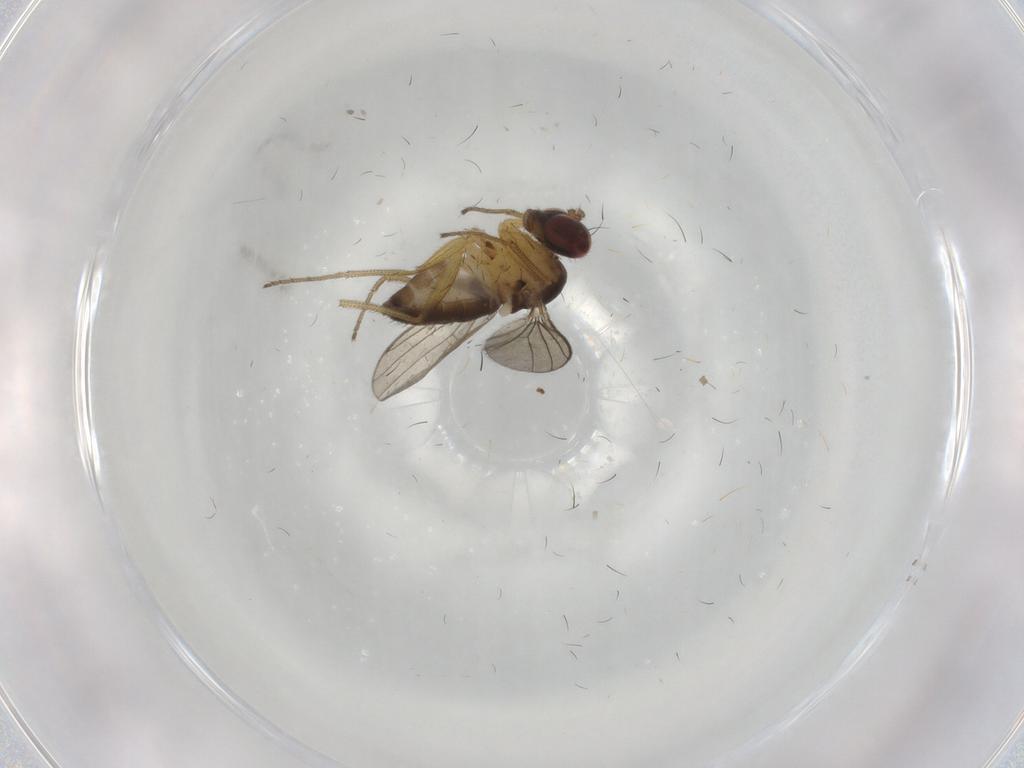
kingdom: Animalia
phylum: Arthropoda
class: Insecta
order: Diptera
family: Dolichopodidae
